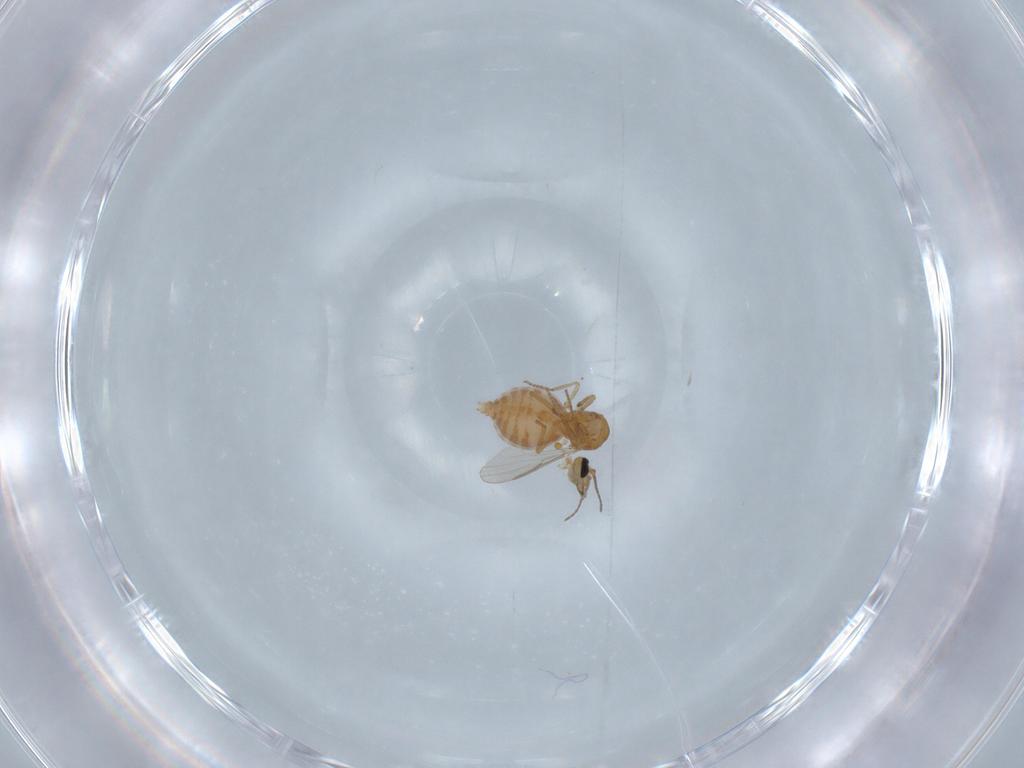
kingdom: Animalia
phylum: Arthropoda
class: Insecta
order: Diptera
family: Ceratopogonidae
